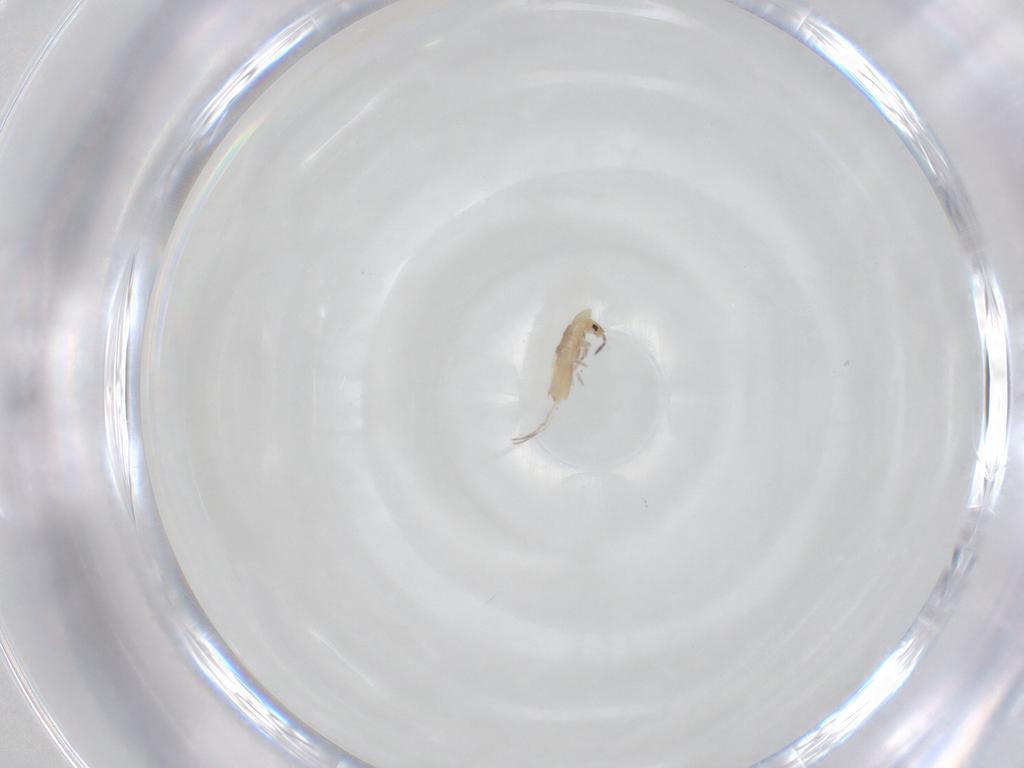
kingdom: Animalia
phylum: Arthropoda
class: Collembola
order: Entomobryomorpha
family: Entomobryidae
